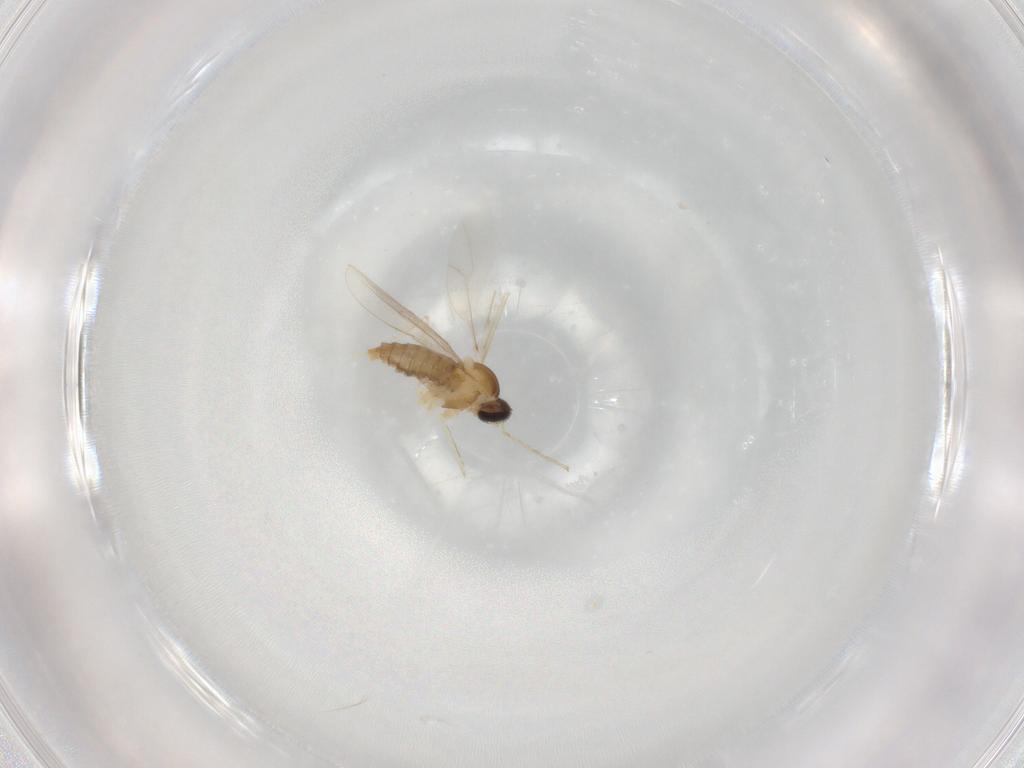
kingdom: Animalia
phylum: Arthropoda
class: Insecta
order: Diptera
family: Cecidomyiidae
